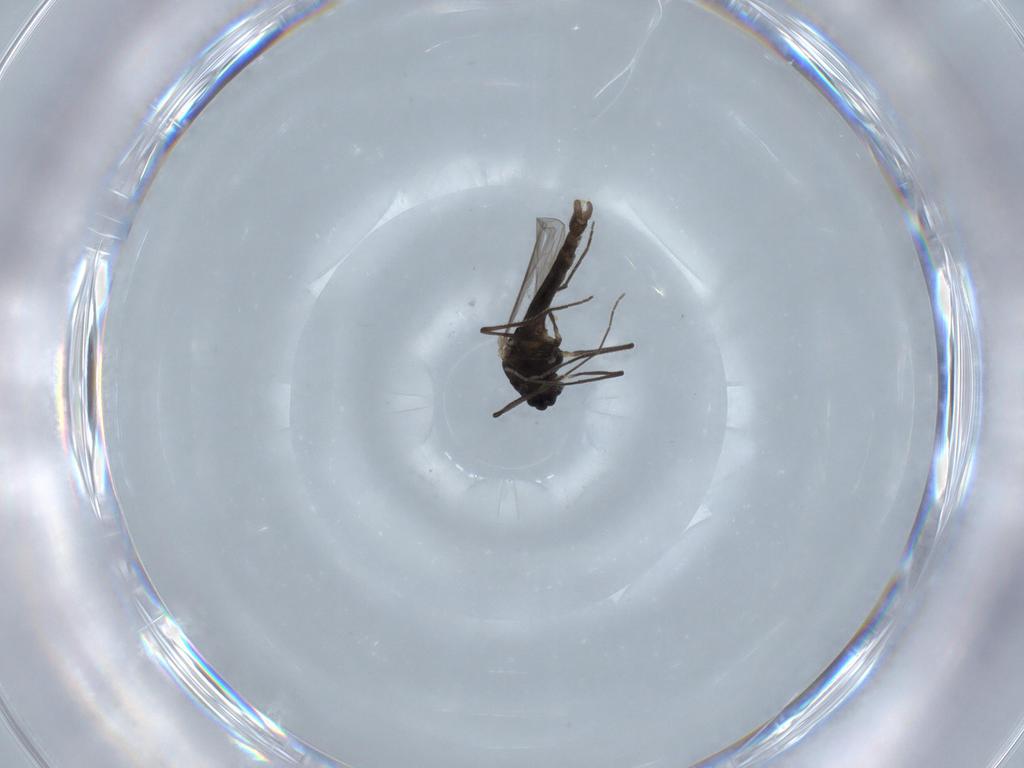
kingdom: Animalia
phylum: Arthropoda
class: Insecta
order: Diptera
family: Chironomidae
